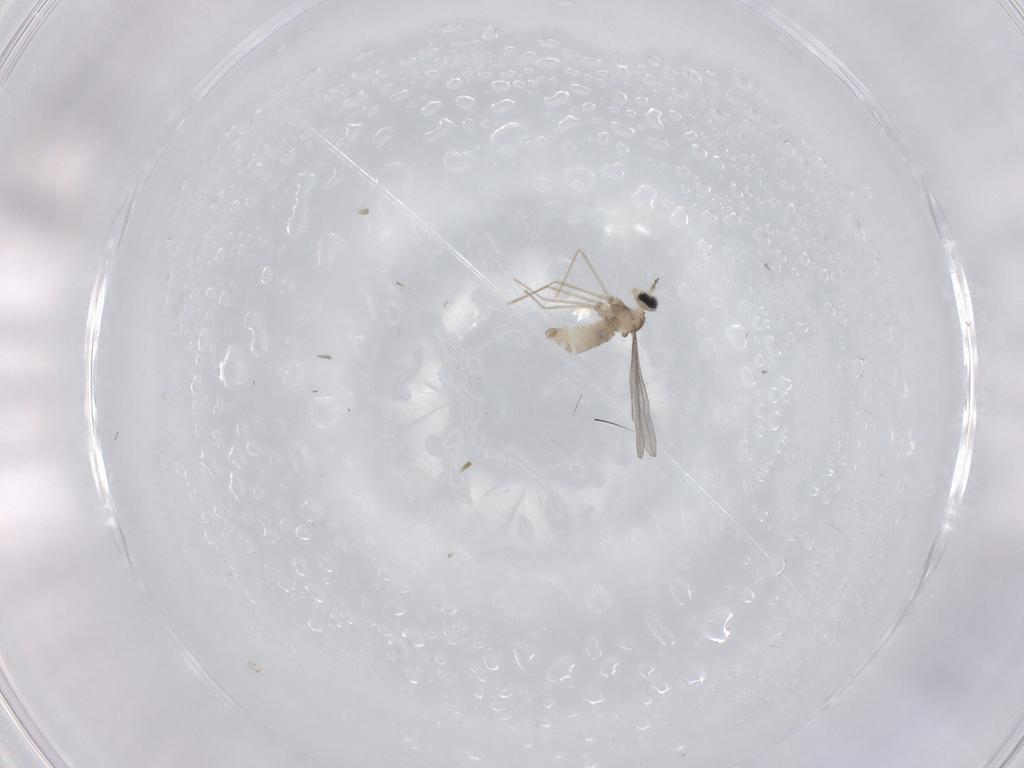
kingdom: Animalia
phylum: Arthropoda
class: Insecta
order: Diptera
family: Cecidomyiidae
